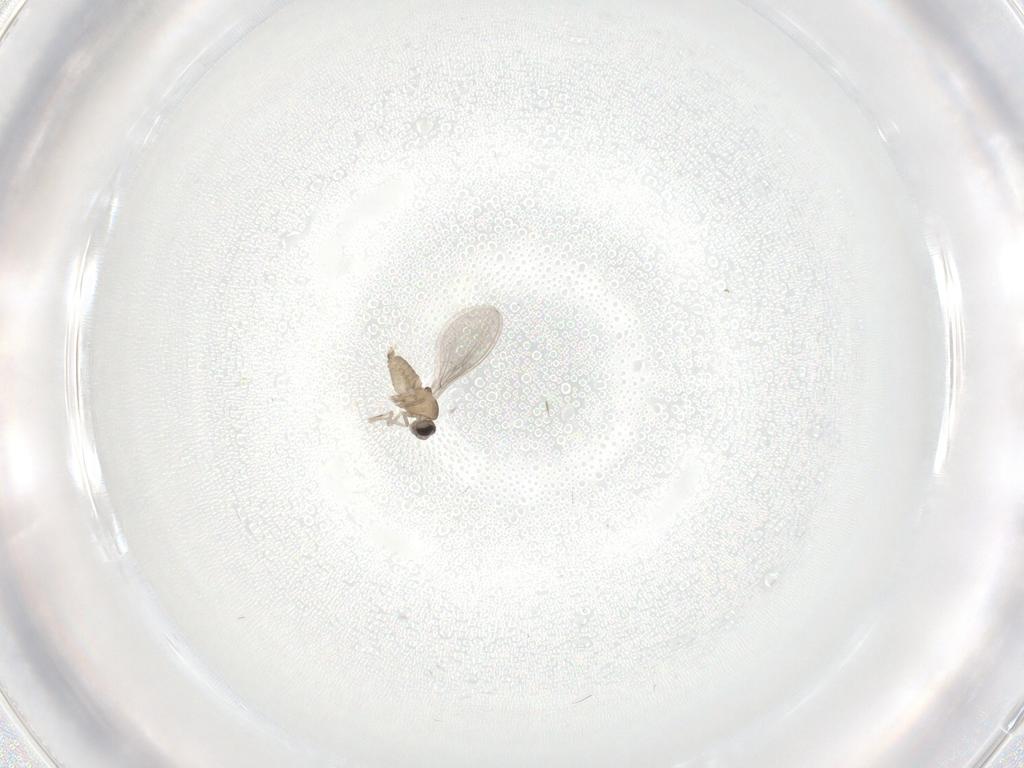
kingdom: Animalia
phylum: Arthropoda
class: Insecta
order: Diptera
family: Cecidomyiidae
